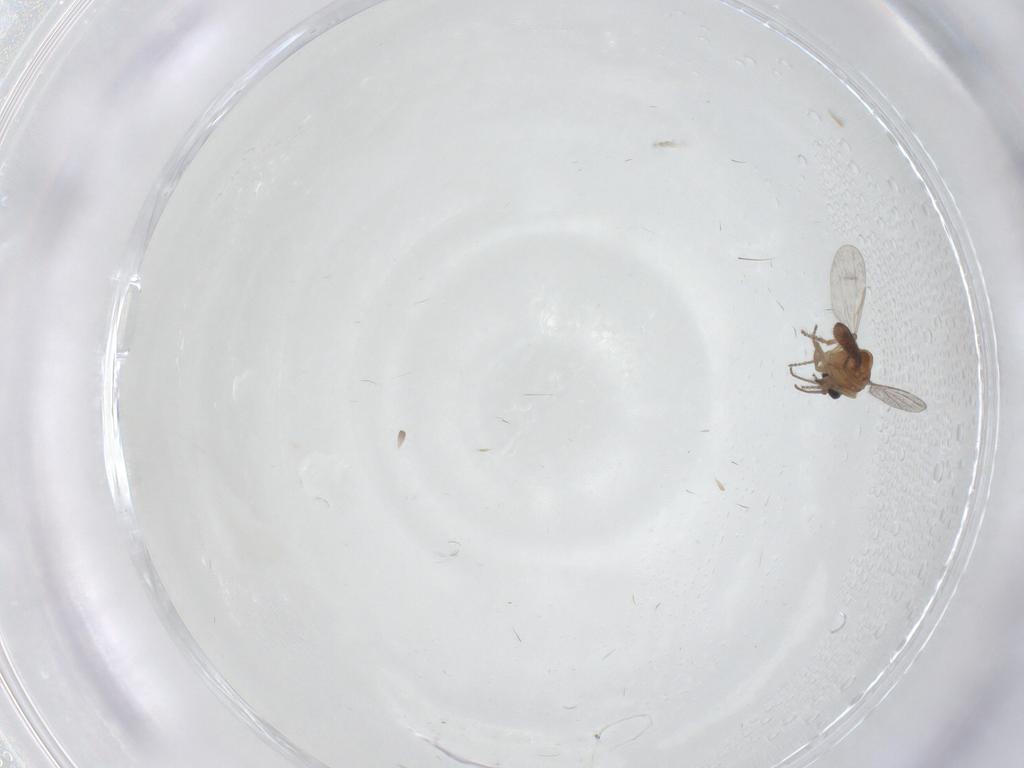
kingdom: Animalia
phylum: Arthropoda
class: Insecta
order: Diptera
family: Ceratopogonidae
